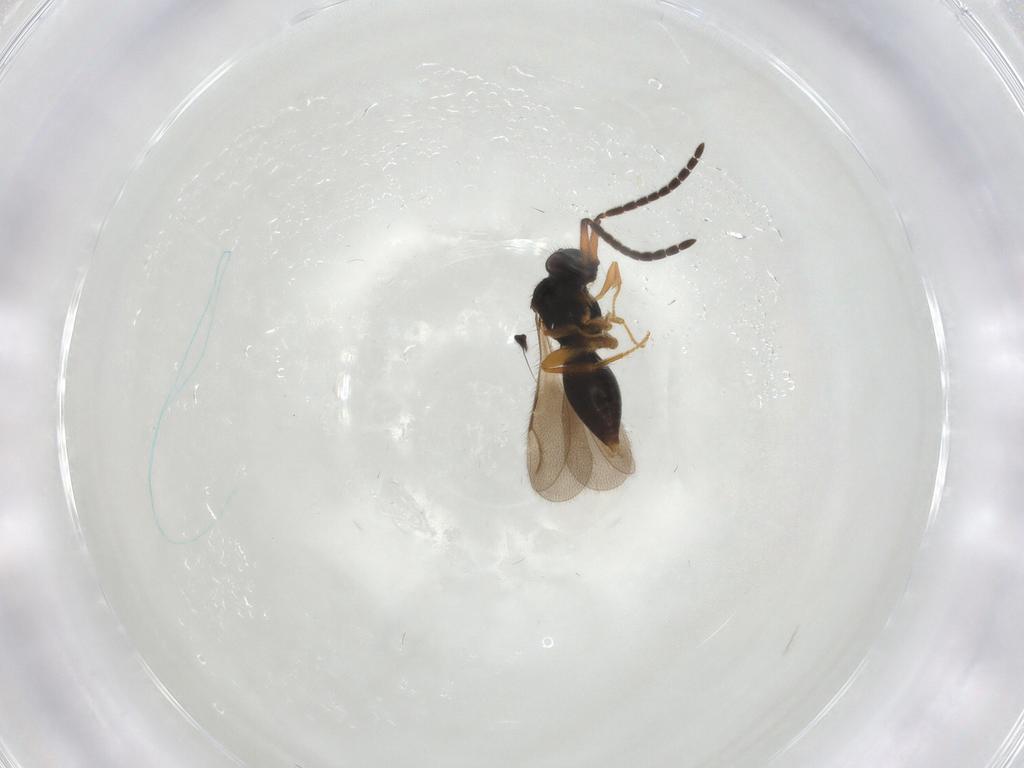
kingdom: Animalia
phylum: Arthropoda
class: Insecta
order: Hymenoptera
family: Ceraphronidae
